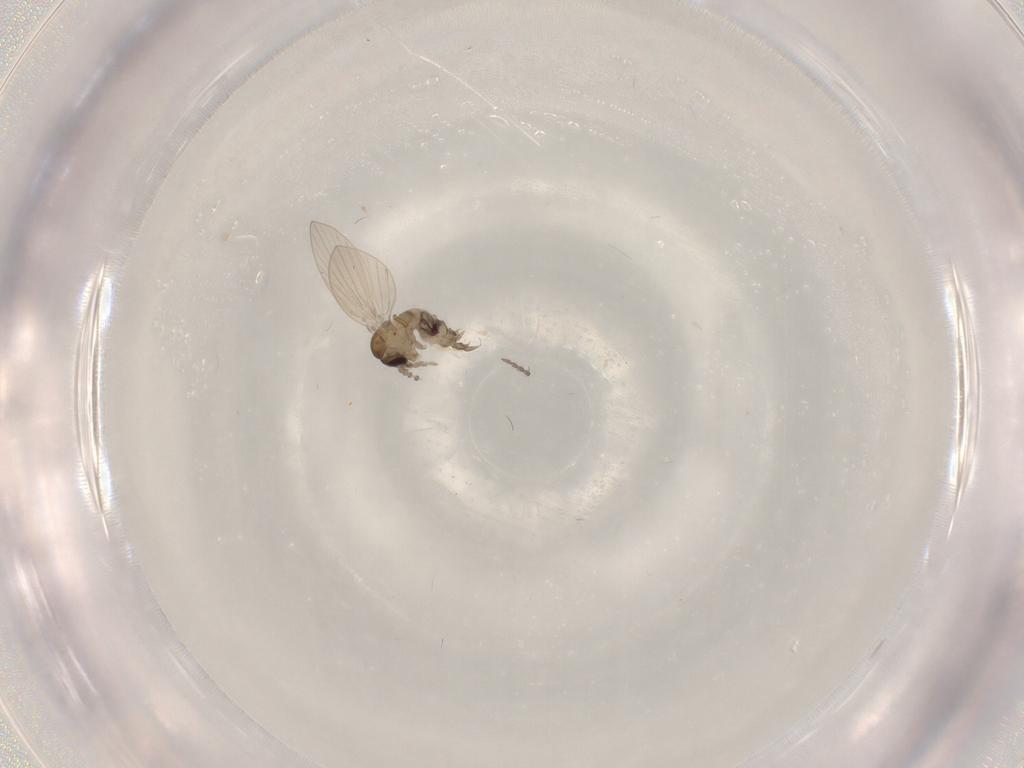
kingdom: Animalia
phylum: Arthropoda
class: Insecta
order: Diptera
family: Psychodidae
